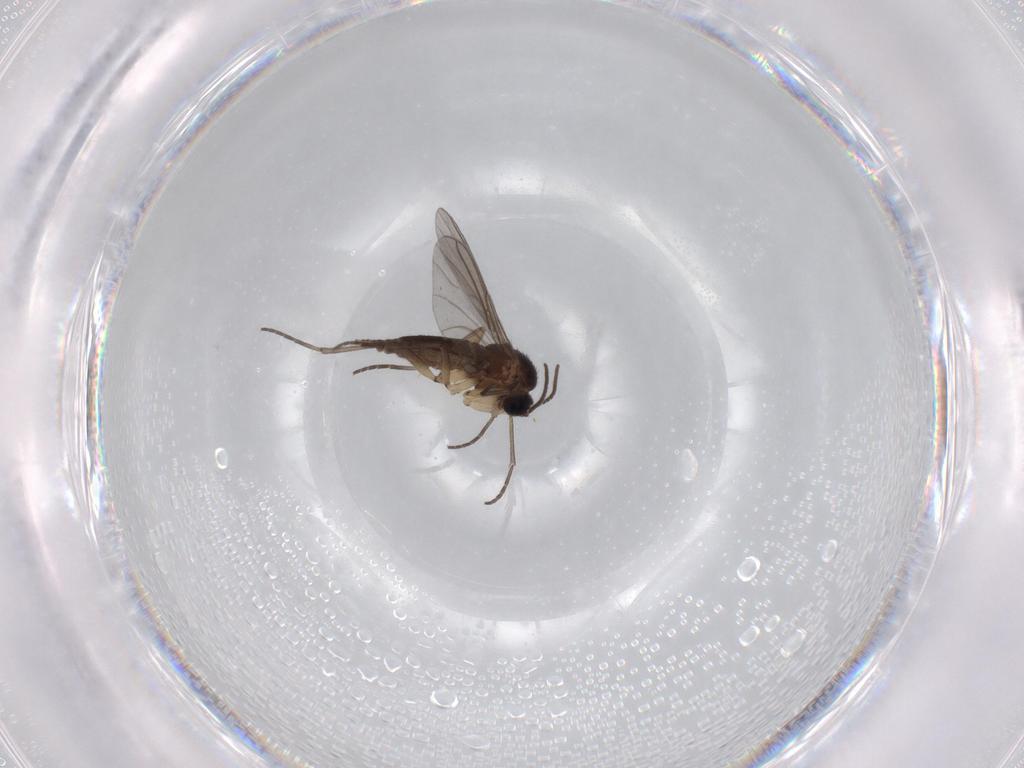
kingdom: Animalia
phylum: Arthropoda
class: Insecta
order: Diptera
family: Sciaridae
